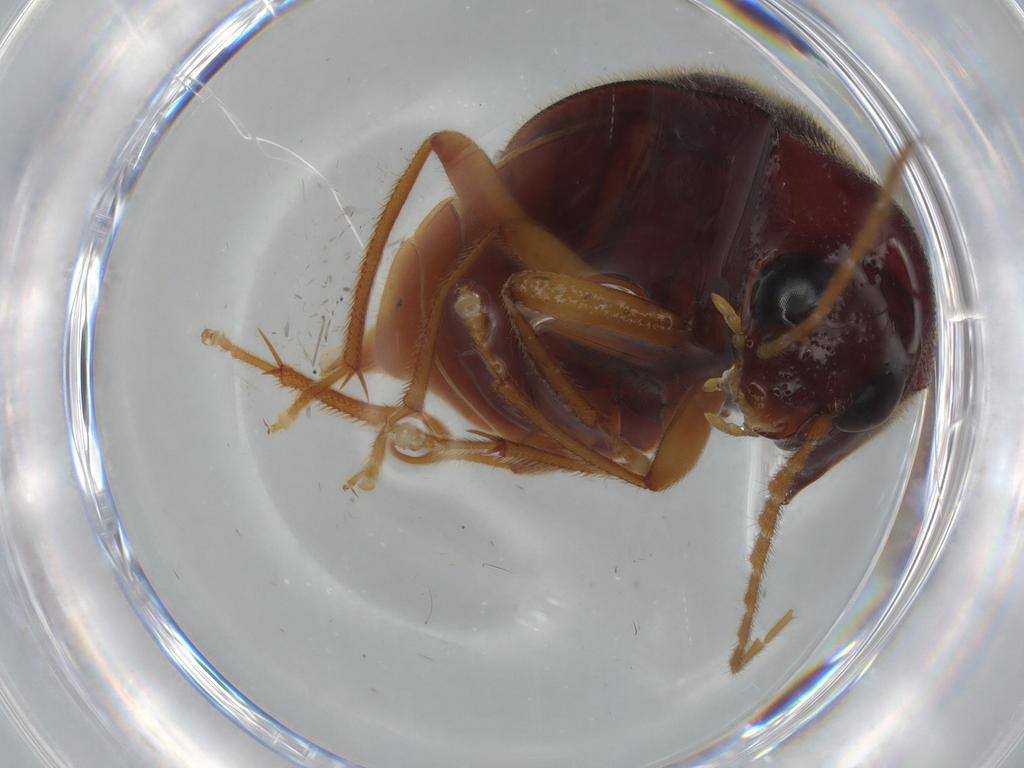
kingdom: Animalia
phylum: Arthropoda
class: Insecta
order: Coleoptera
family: Ptilodactylidae
